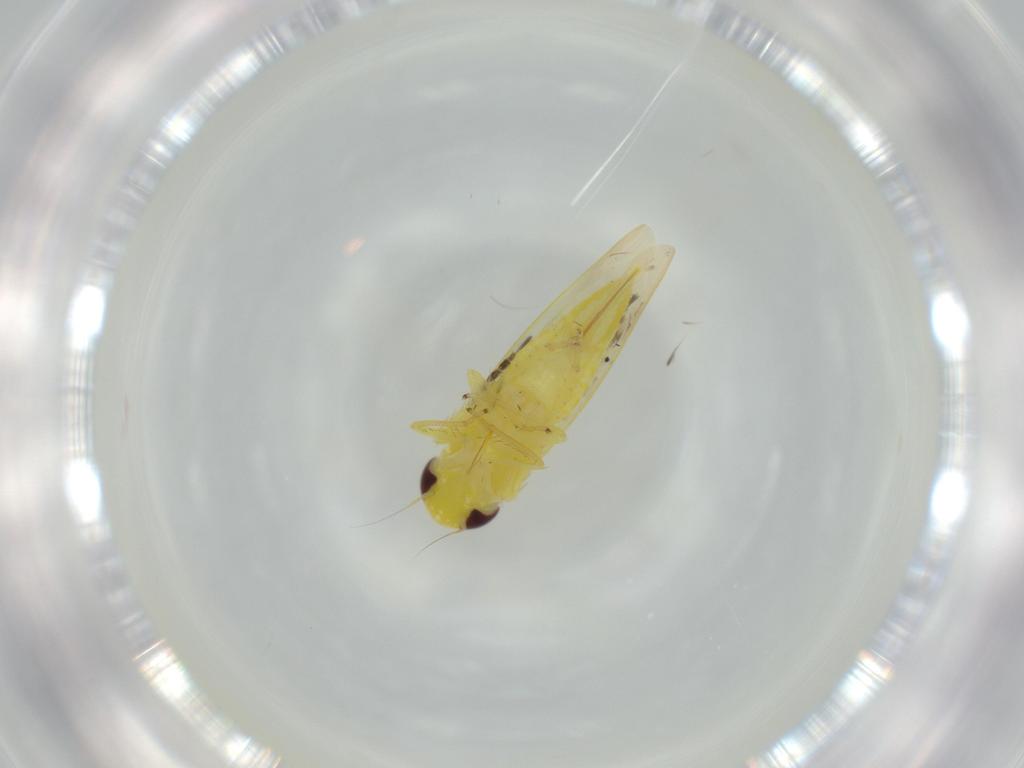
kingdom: Animalia
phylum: Arthropoda
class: Insecta
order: Hemiptera
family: Cicadellidae
